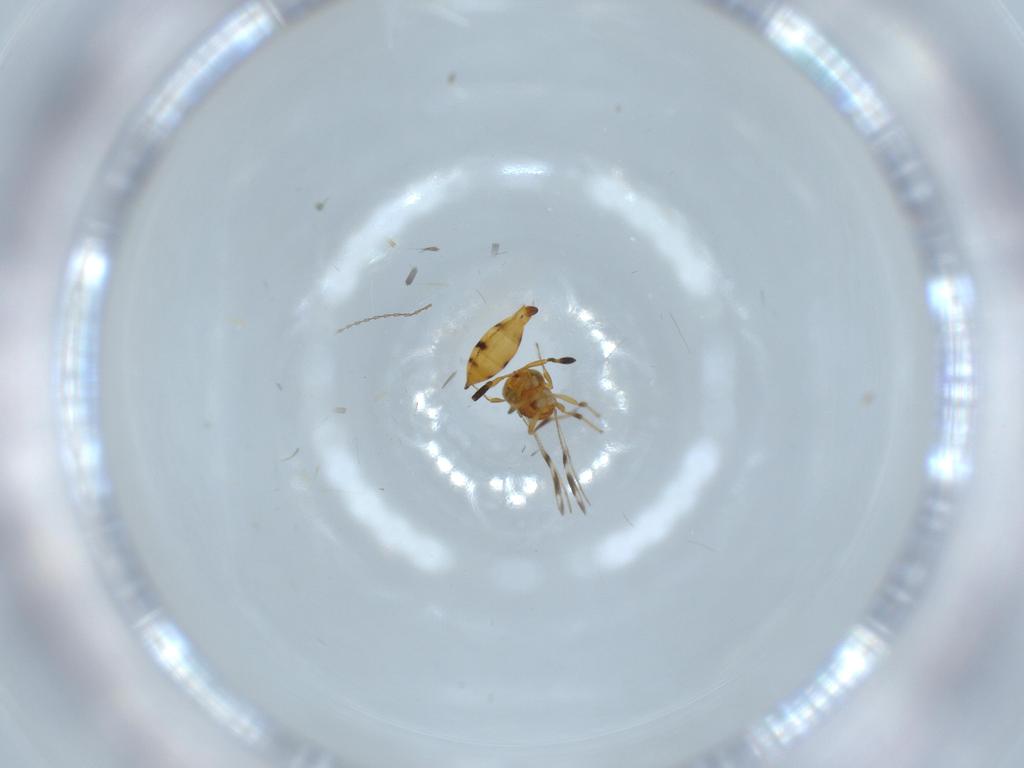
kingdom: Animalia
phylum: Arthropoda
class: Insecta
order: Hymenoptera
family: Scelionidae
